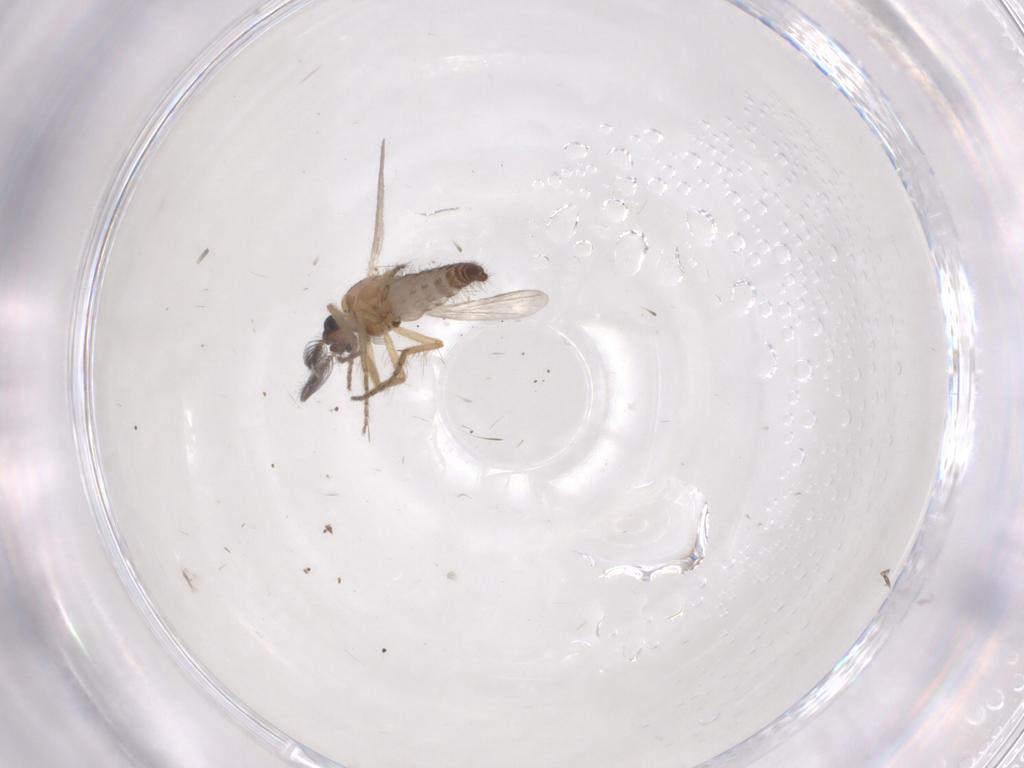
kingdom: Animalia
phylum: Arthropoda
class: Insecta
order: Diptera
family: Ceratopogonidae
